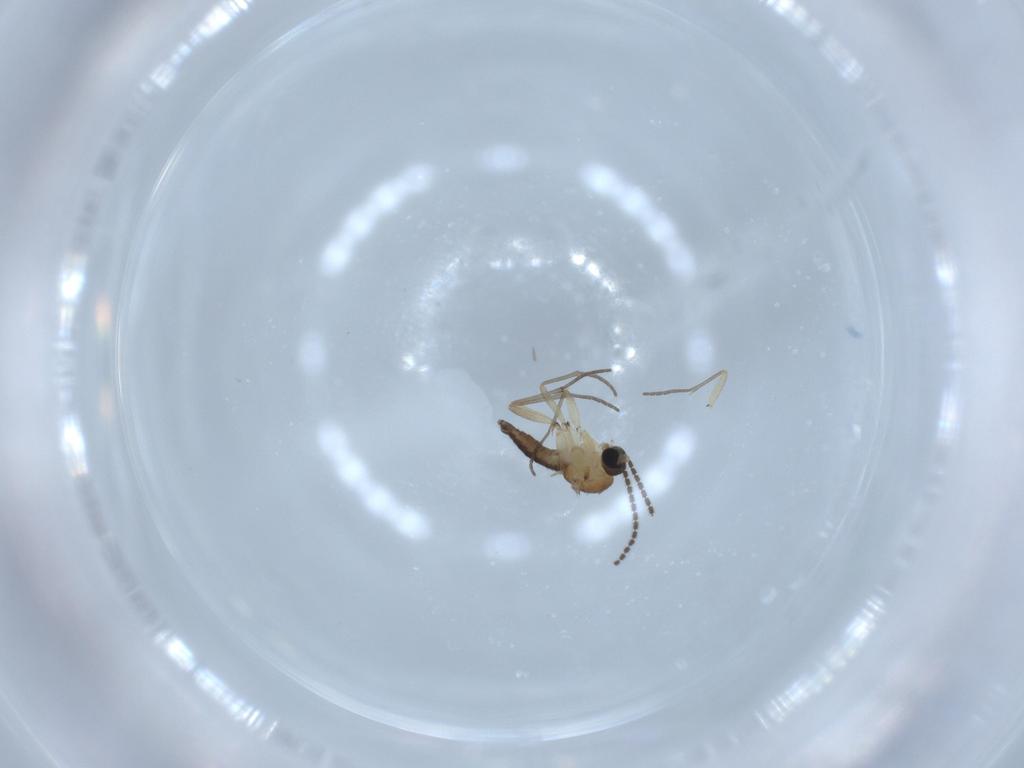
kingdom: Animalia
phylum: Arthropoda
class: Insecta
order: Diptera
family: Sciaridae
